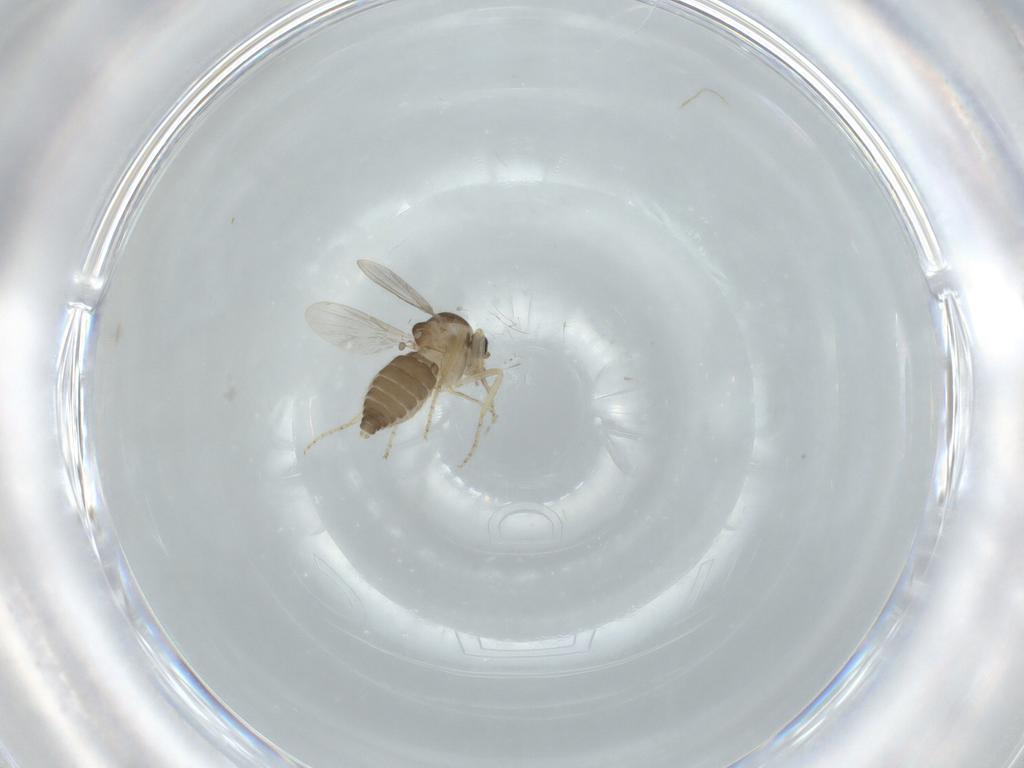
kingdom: Animalia
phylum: Arthropoda
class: Insecta
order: Diptera
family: Ceratopogonidae
